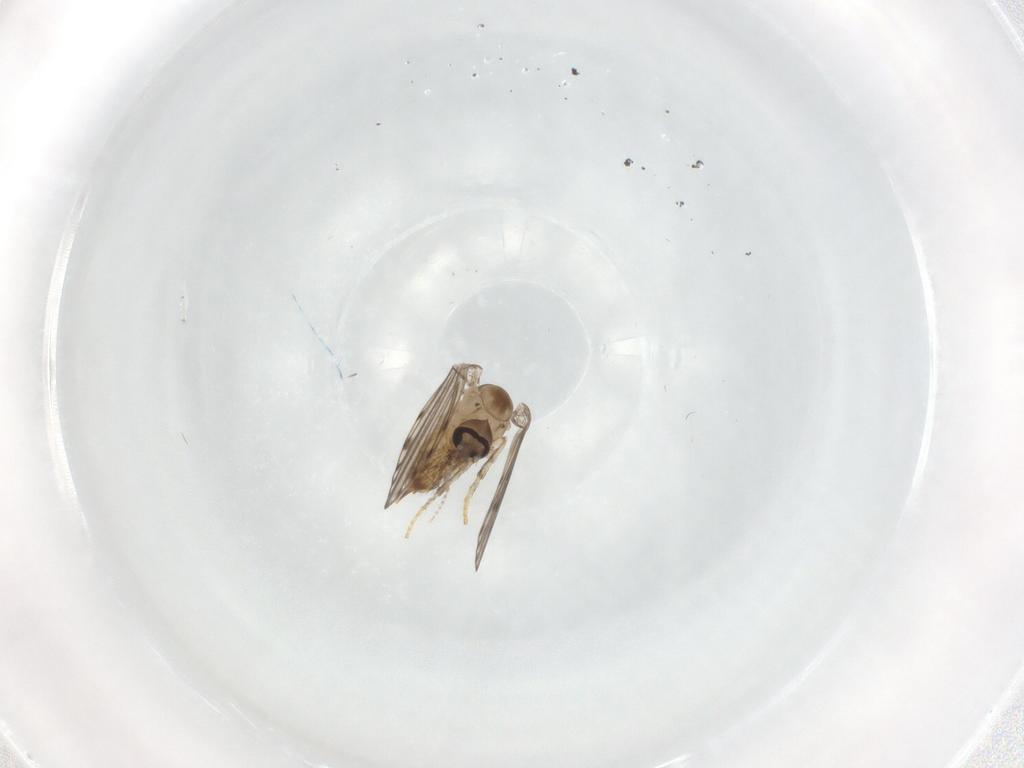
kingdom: Animalia
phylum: Arthropoda
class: Insecta
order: Diptera
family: Psychodidae
